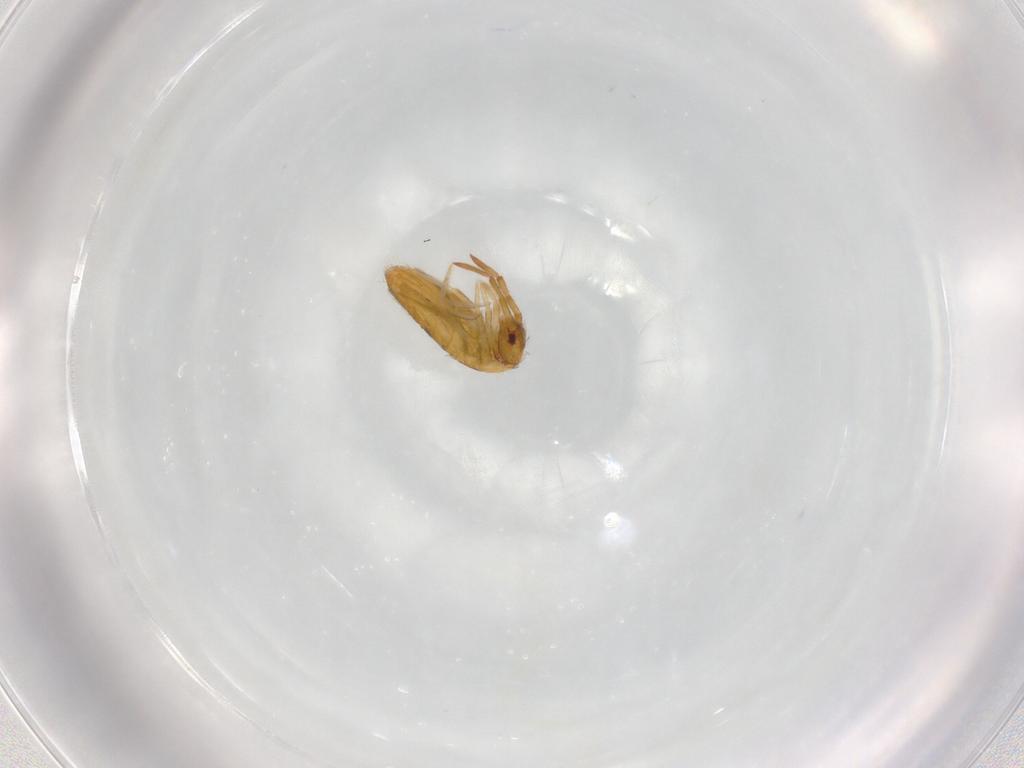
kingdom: Animalia
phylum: Arthropoda
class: Collembola
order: Entomobryomorpha
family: Entomobryidae
